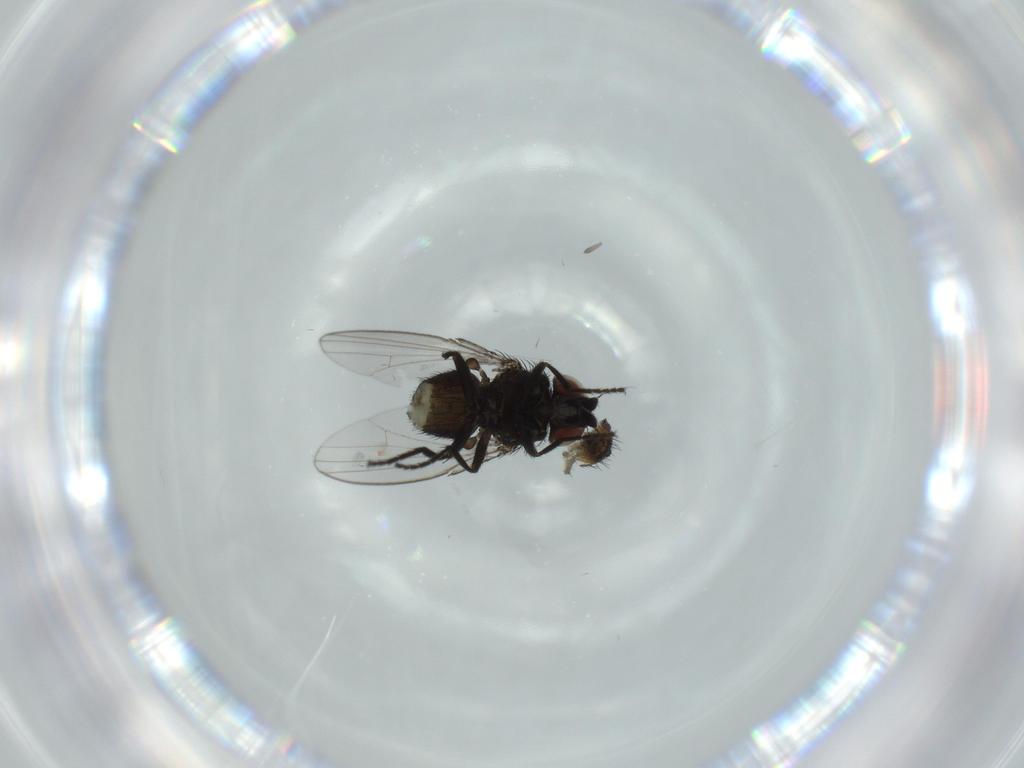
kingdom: Animalia
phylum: Arthropoda
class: Insecta
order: Diptera
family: Milichiidae
